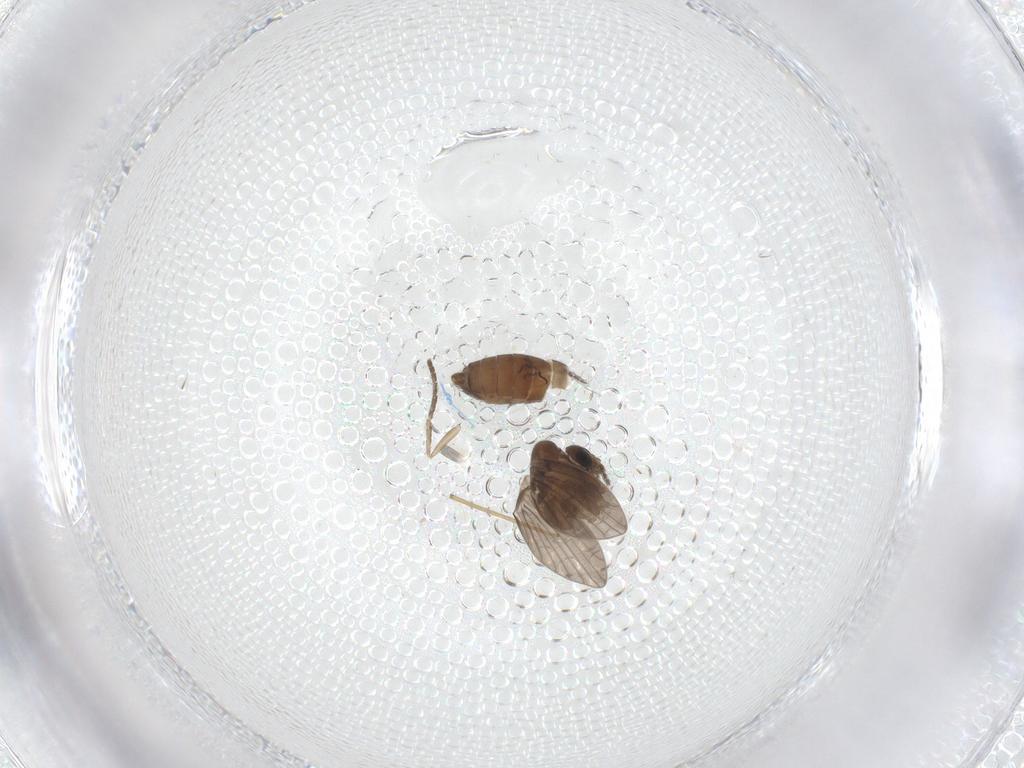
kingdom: Animalia
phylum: Arthropoda
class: Insecta
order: Diptera
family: Psychodidae
